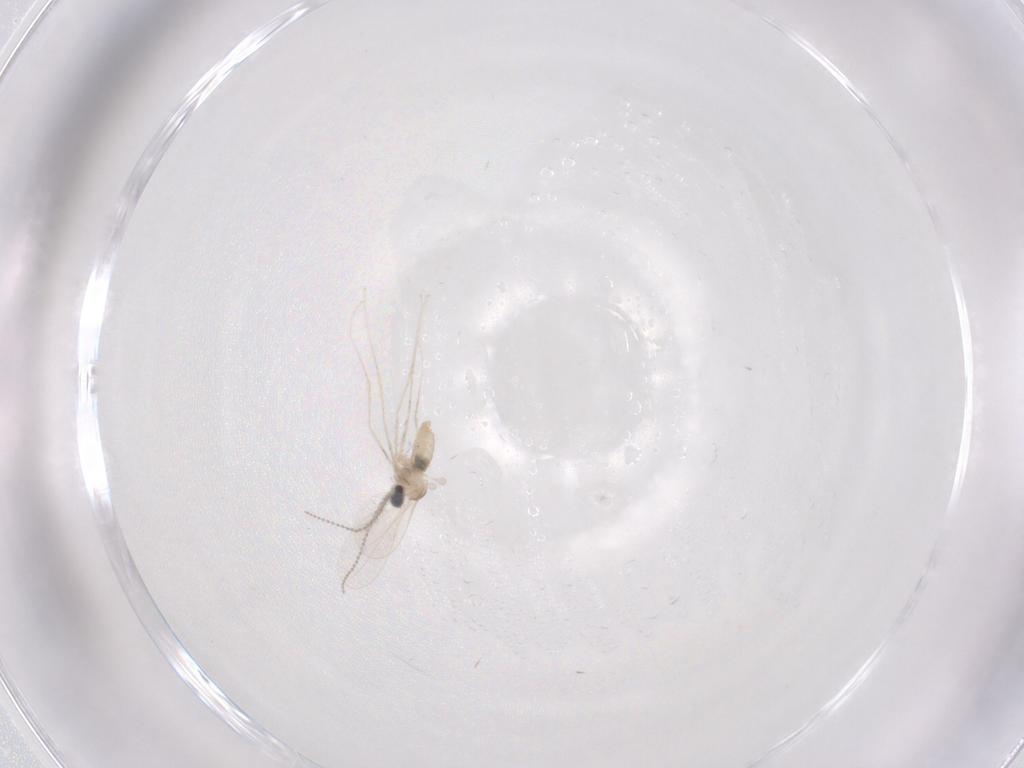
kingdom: Animalia
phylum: Arthropoda
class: Insecta
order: Diptera
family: Cecidomyiidae
